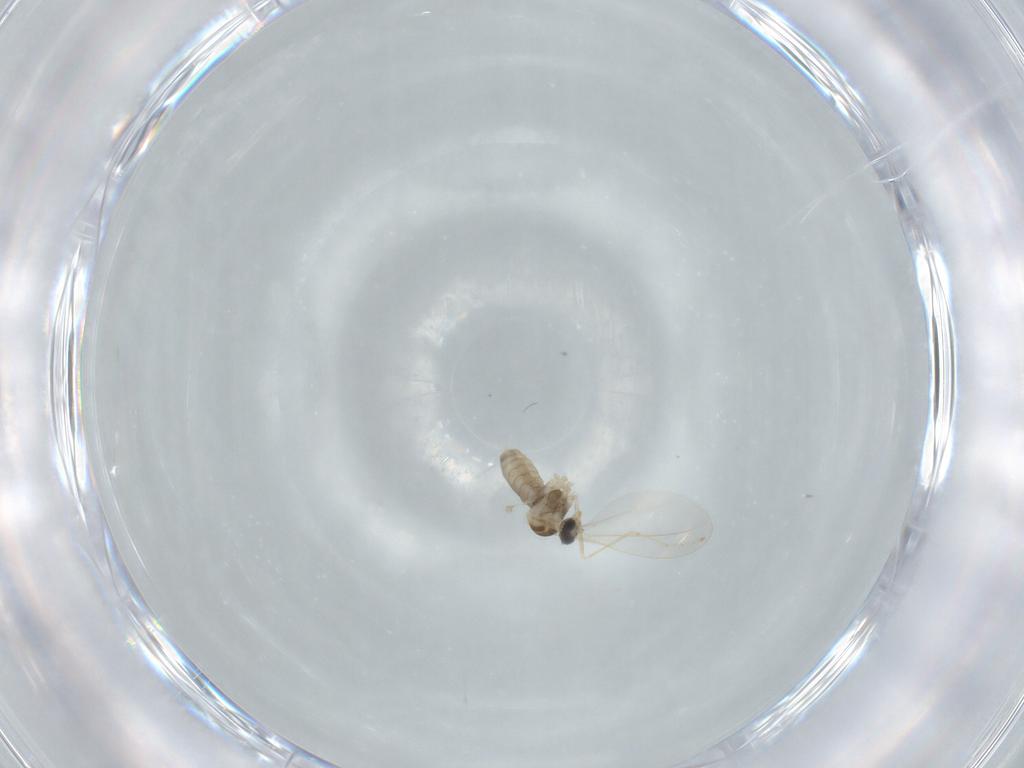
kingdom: Animalia
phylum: Arthropoda
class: Insecta
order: Diptera
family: Cecidomyiidae
